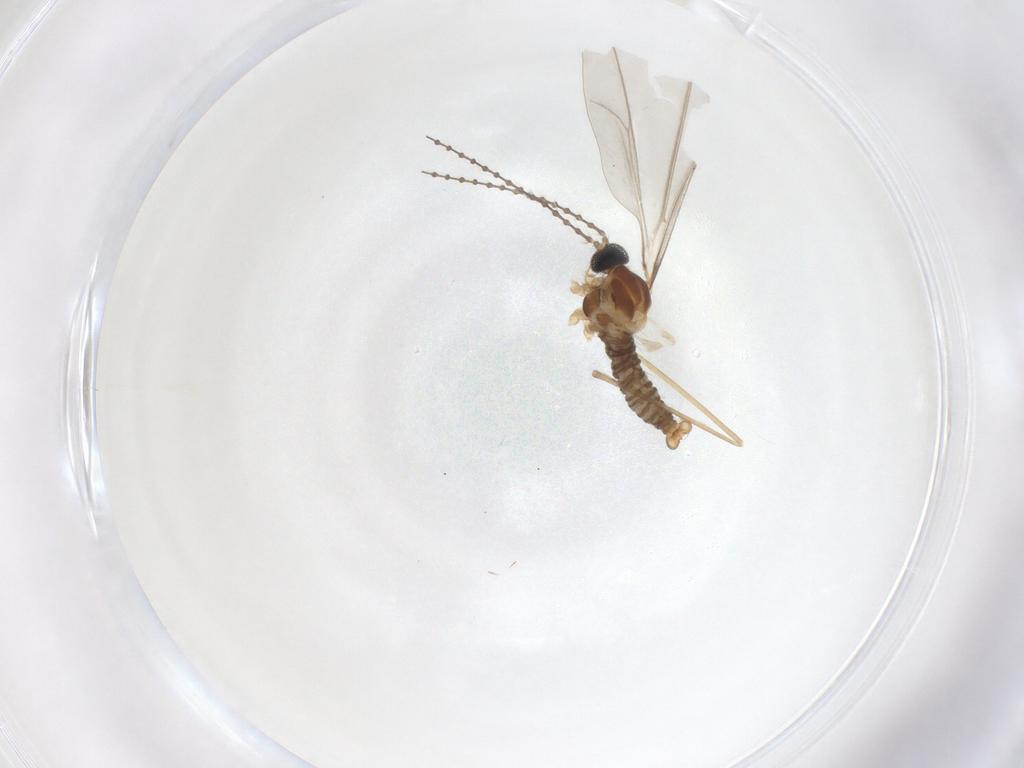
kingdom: Animalia
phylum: Arthropoda
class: Insecta
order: Diptera
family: Cecidomyiidae
